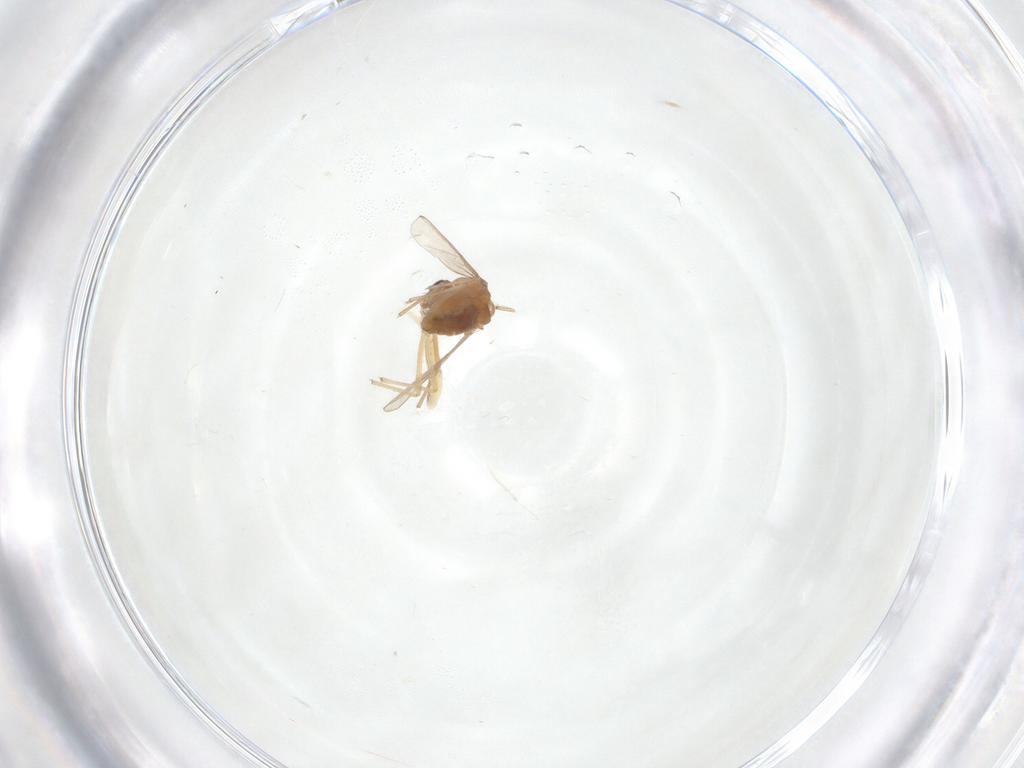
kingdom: Animalia
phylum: Arthropoda
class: Insecta
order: Diptera
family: Chironomidae
